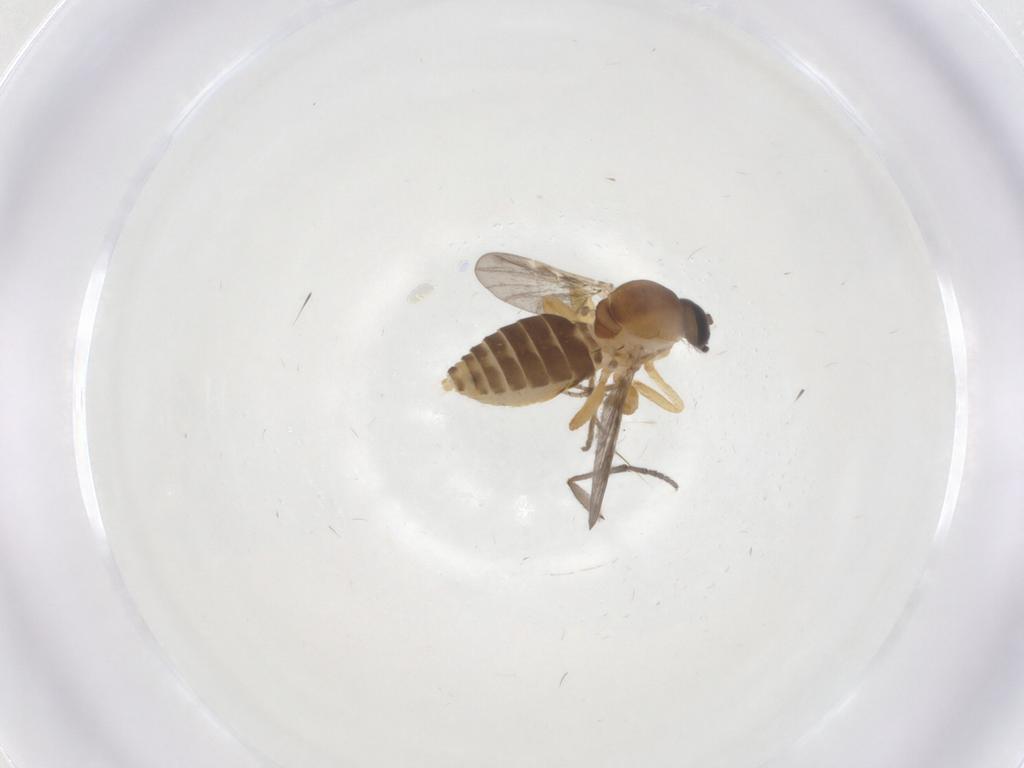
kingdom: Animalia
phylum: Arthropoda
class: Insecta
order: Diptera
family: Ceratopogonidae
